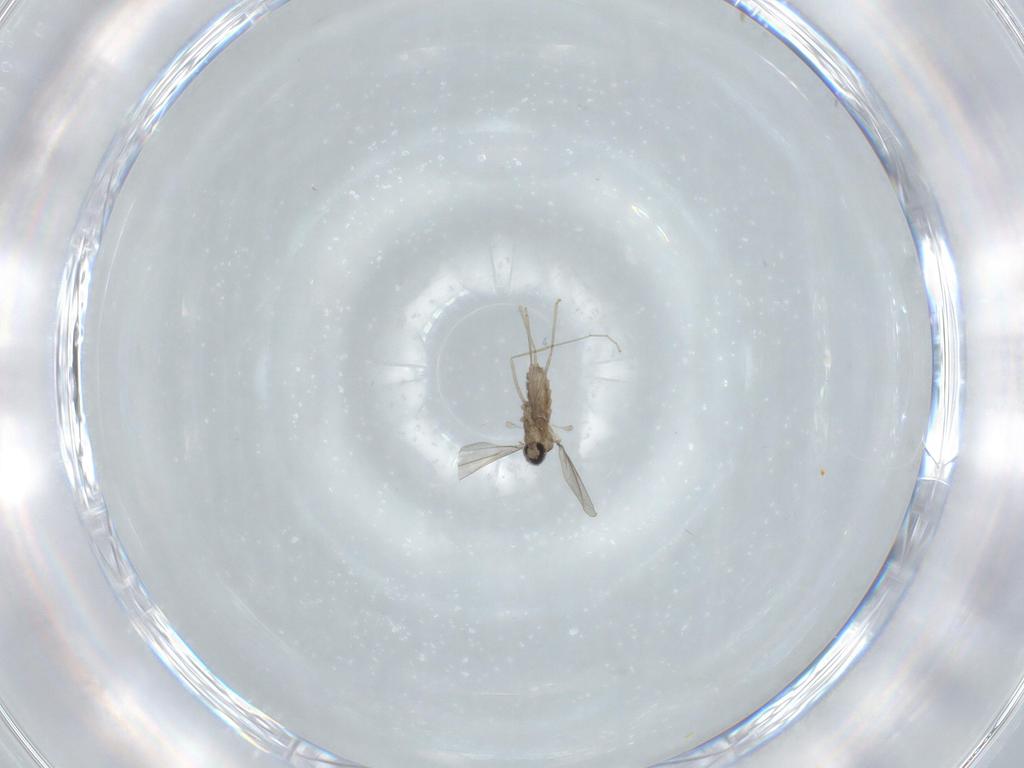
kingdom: Animalia
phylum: Arthropoda
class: Insecta
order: Diptera
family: Cecidomyiidae
